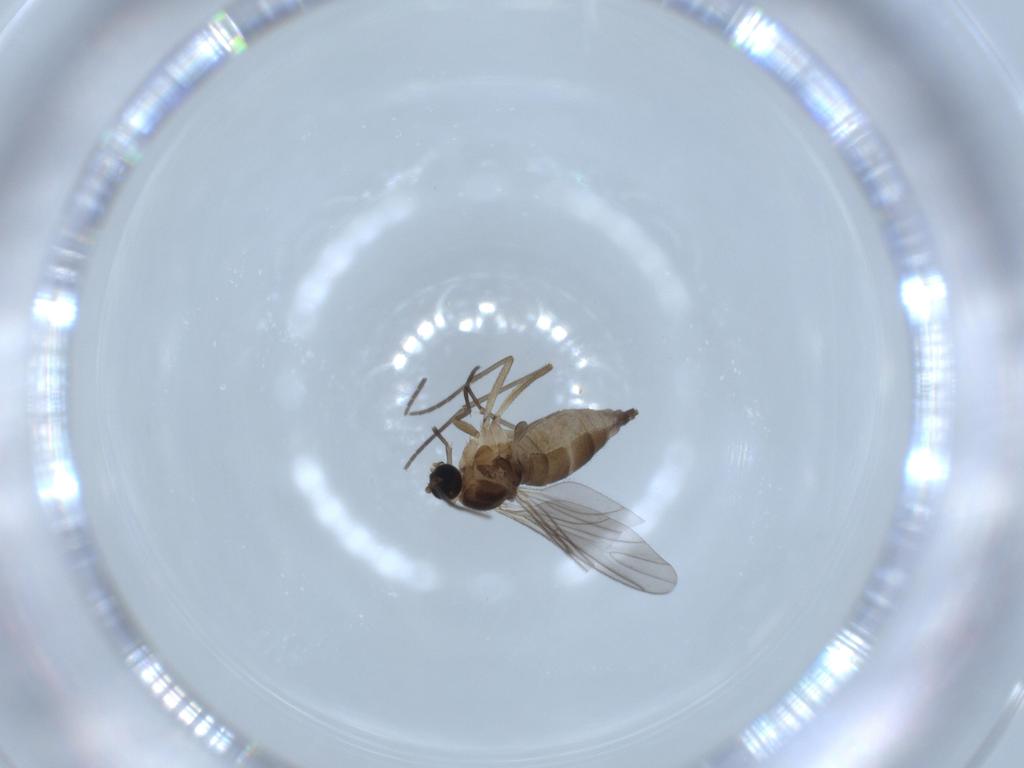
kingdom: Animalia
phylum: Arthropoda
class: Insecta
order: Diptera
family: Sciaridae
